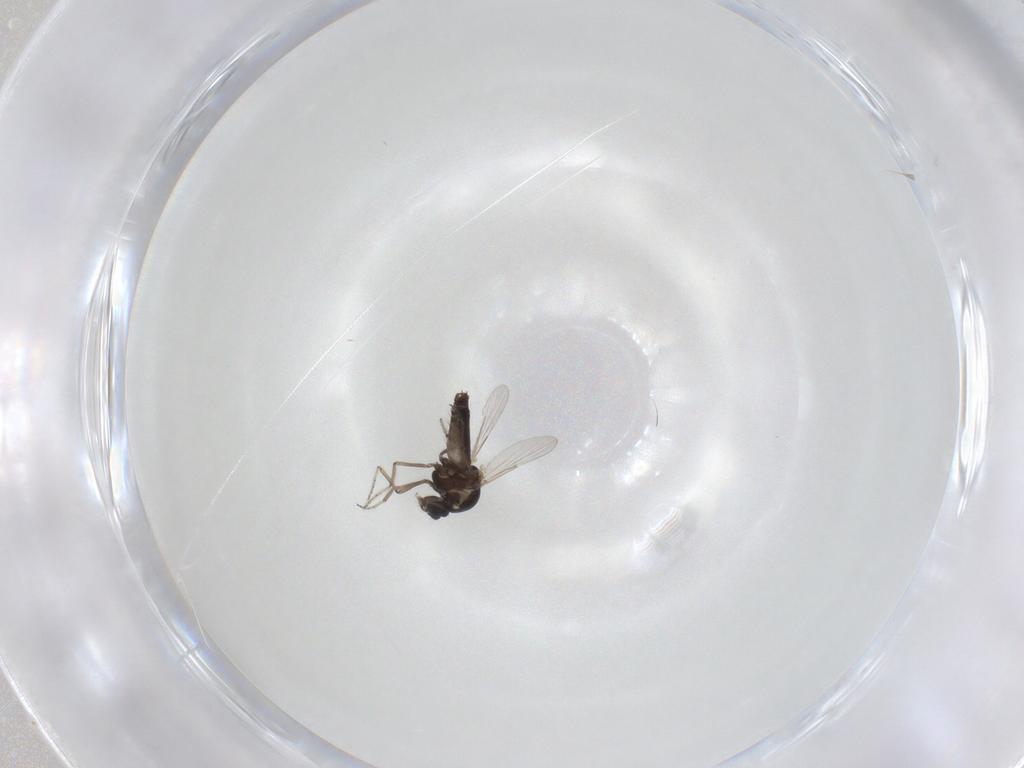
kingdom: Animalia
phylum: Arthropoda
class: Insecta
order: Diptera
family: Ceratopogonidae
